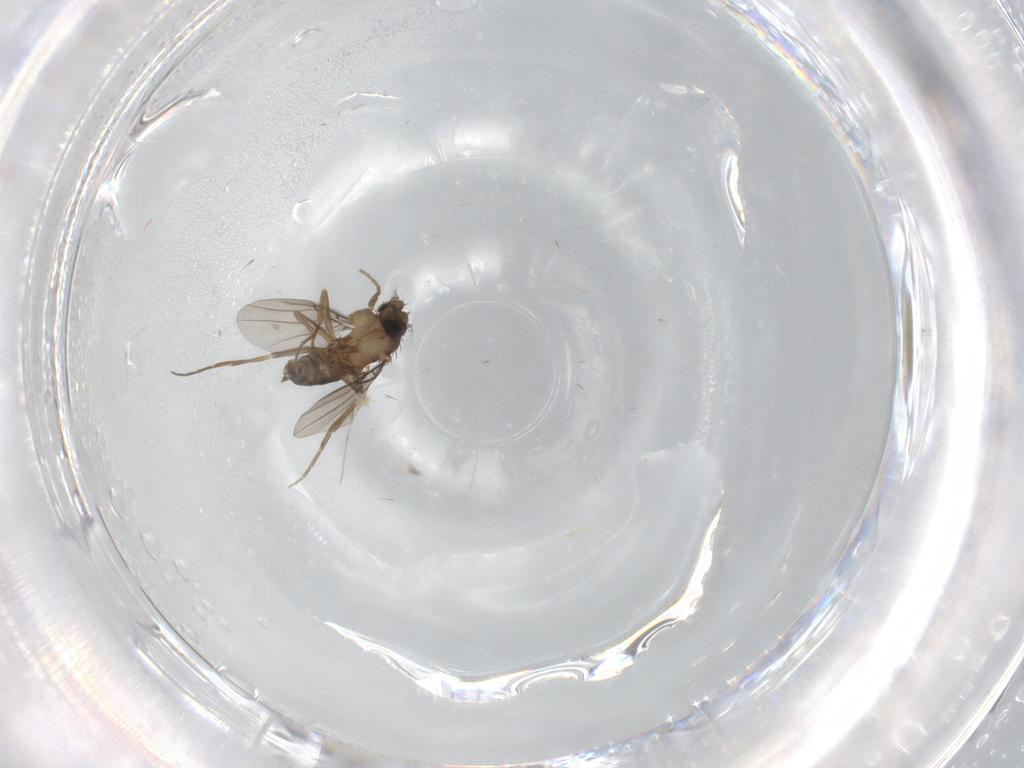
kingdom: Animalia
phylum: Arthropoda
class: Insecta
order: Diptera
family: Cecidomyiidae
